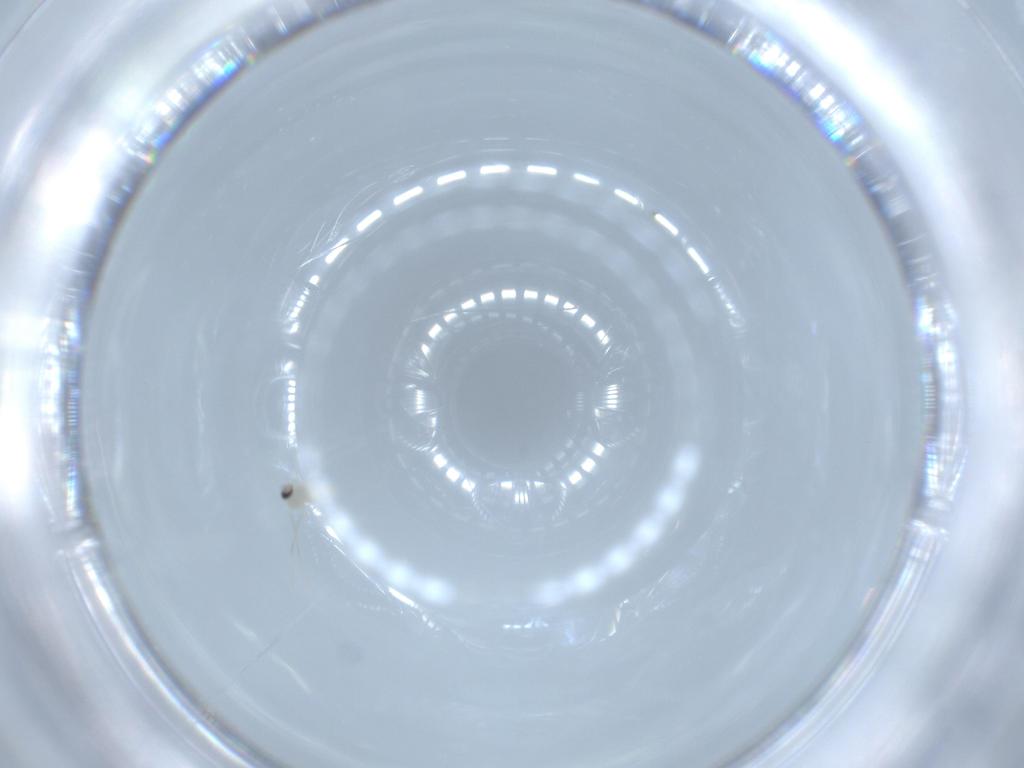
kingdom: Animalia
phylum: Arthropoda
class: Insecta
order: Diptera
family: Cecidomyiidae
